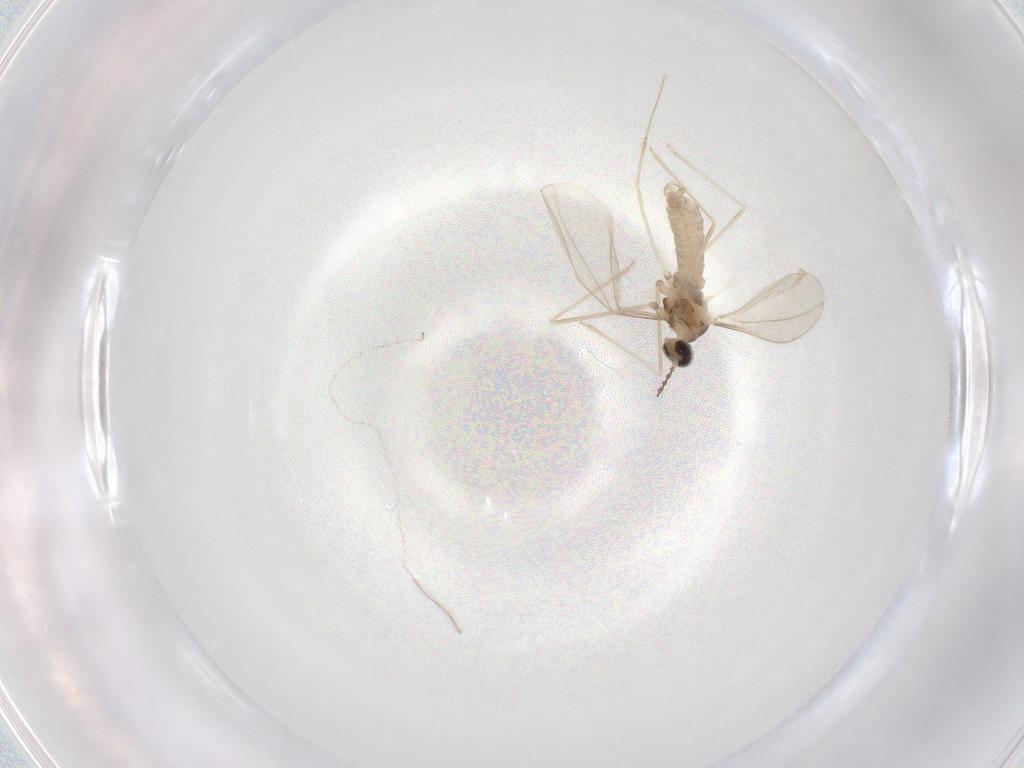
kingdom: Animalia
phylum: Arthropoda
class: Insecta
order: Diptera
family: Cecidomyiidae
